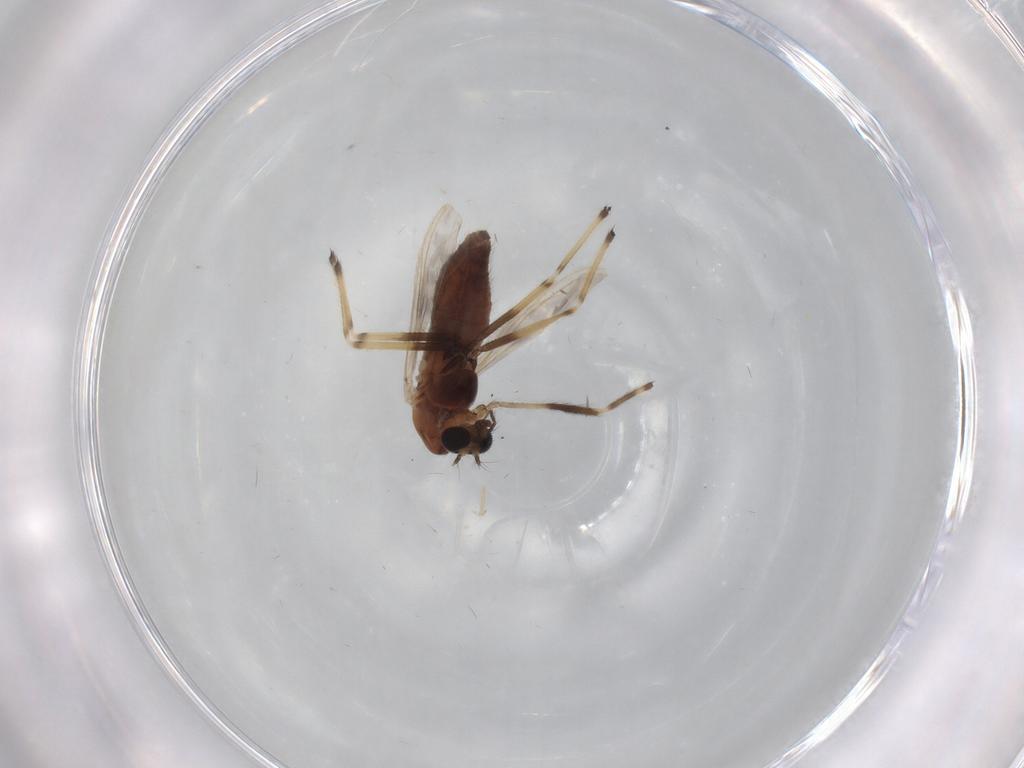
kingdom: Animalia
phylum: Arthropoda
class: Insecta
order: Diptera
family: Chironomidae
